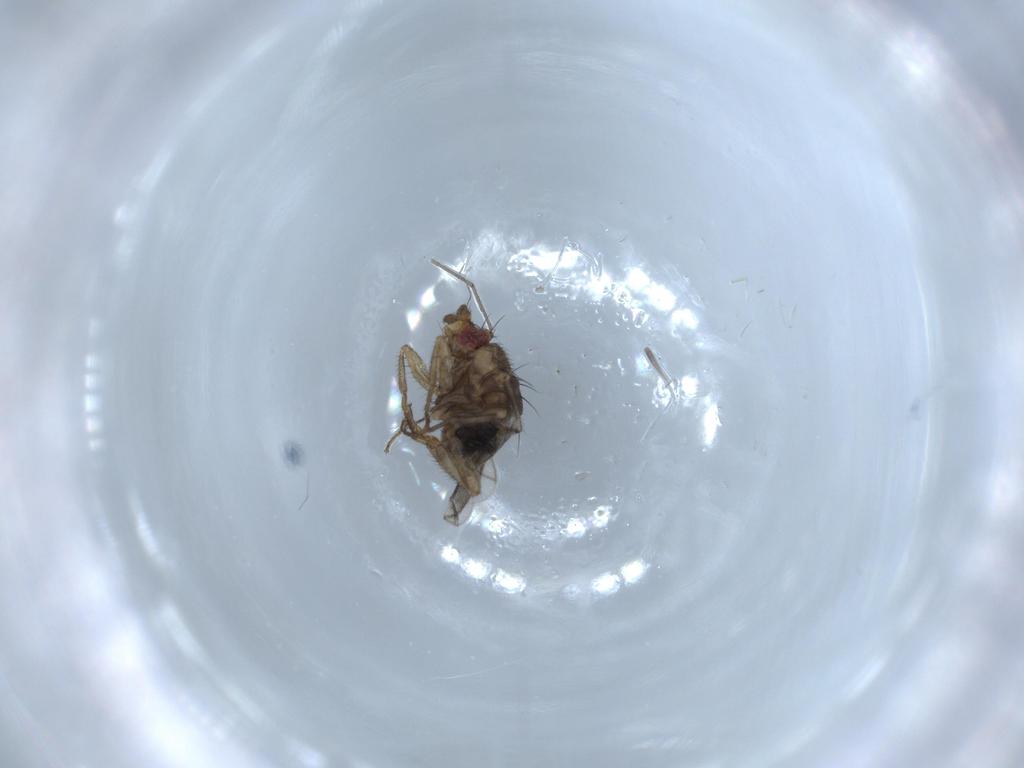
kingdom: Animalia
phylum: Arthropoda
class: Insecta
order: Diptera
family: Sphaeroceridae
